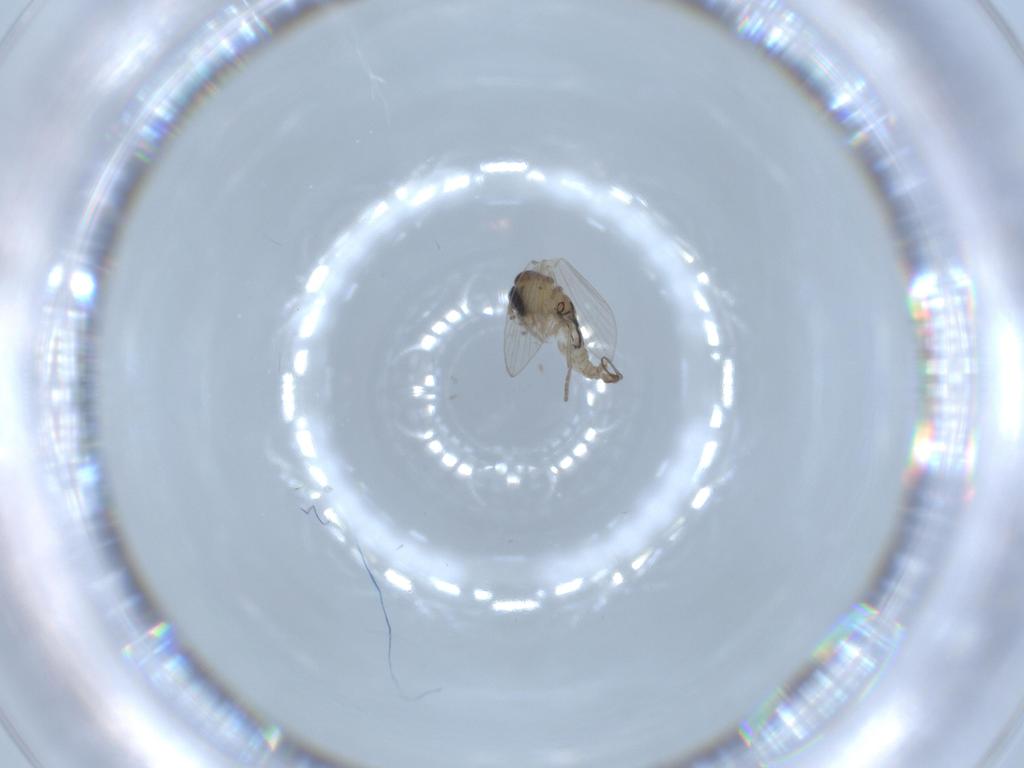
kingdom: Animalia
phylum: Arthropoda
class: Insecta
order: Diptera
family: Psychodidae
